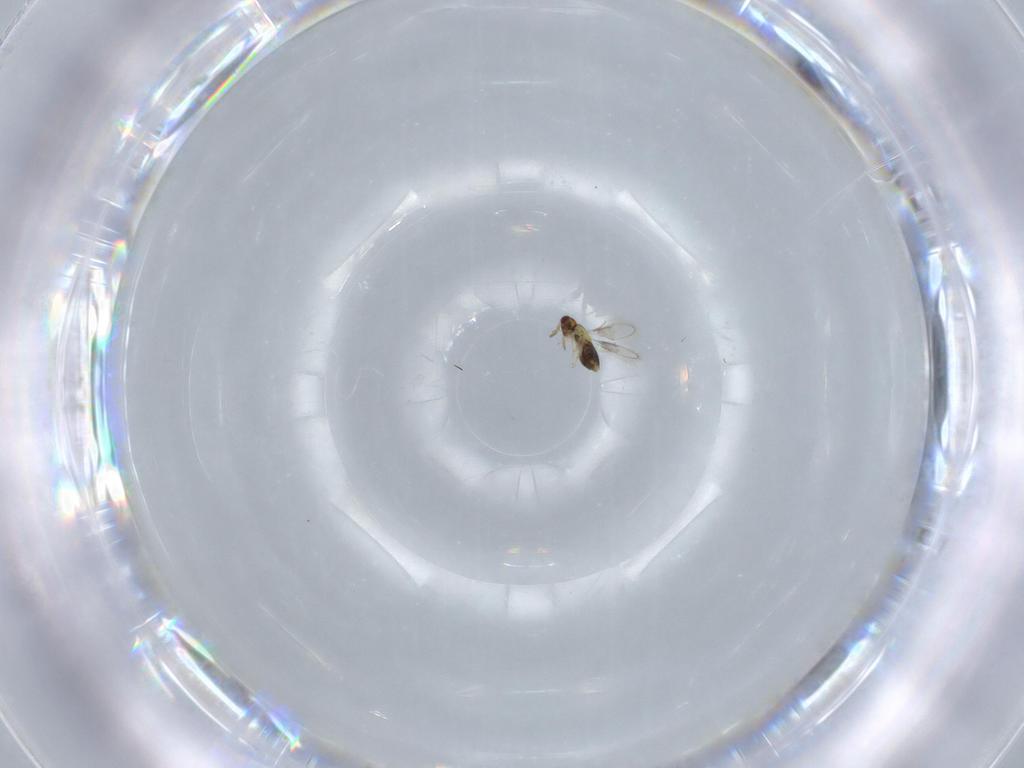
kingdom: Animalia
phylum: Arthropoda
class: Insecta
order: Hymenoptera
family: Aphelinidae
